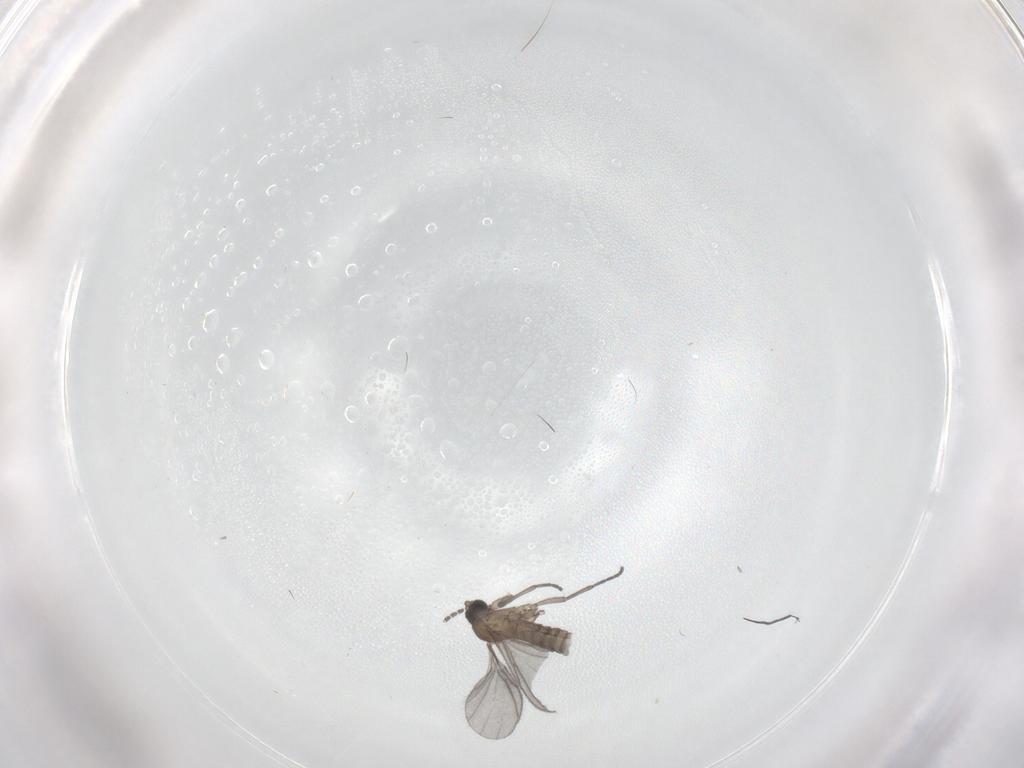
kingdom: Animalia
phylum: Arthropoda
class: Insecta
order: Diptera
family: Sciaridae
